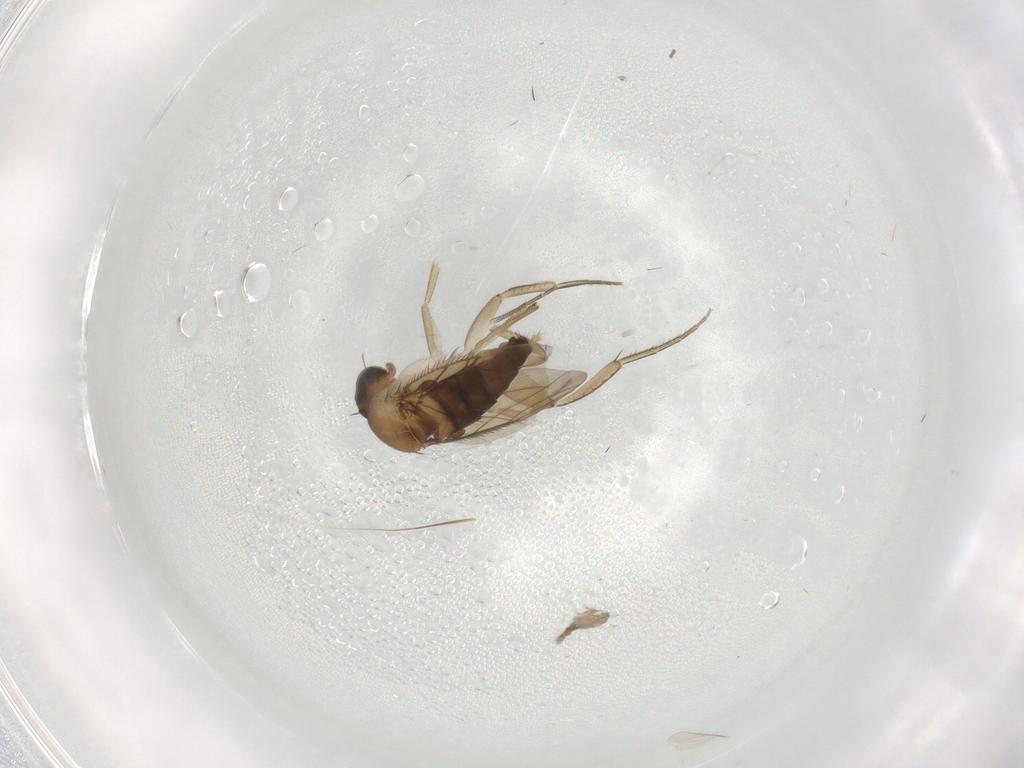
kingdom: Animalia
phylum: Arthropoda
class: Insecta
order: Diptera
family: Phoridae
